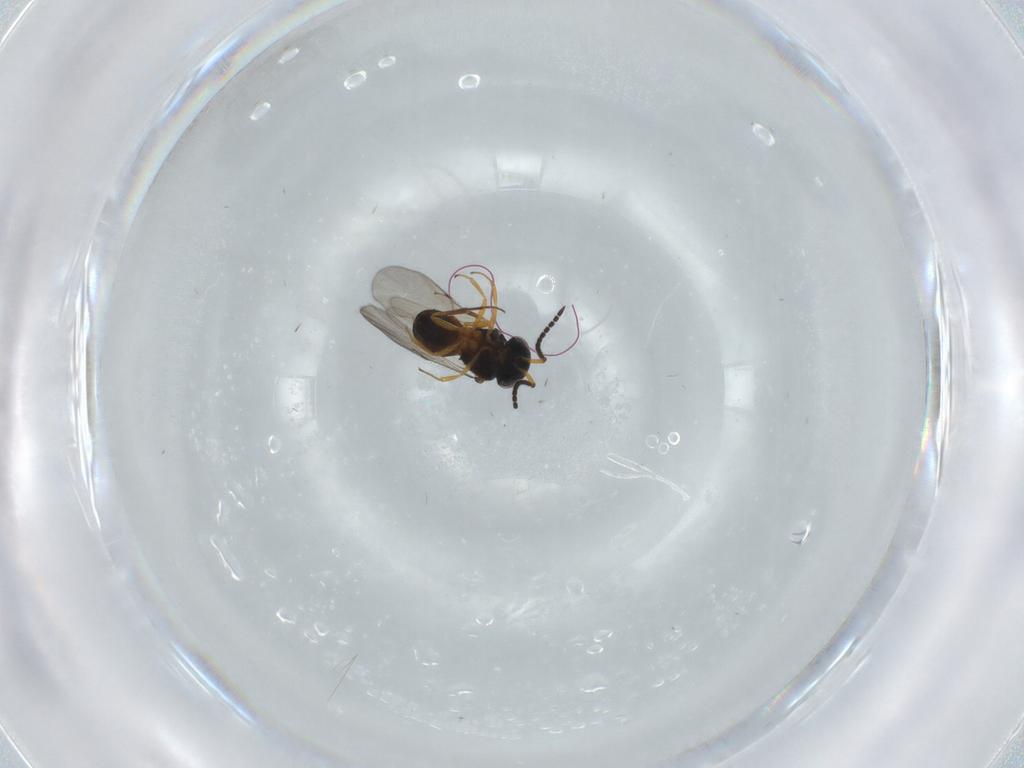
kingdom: Animalia
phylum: Arthropoda
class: Insecta
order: Hymenoptera
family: Scelionidae
